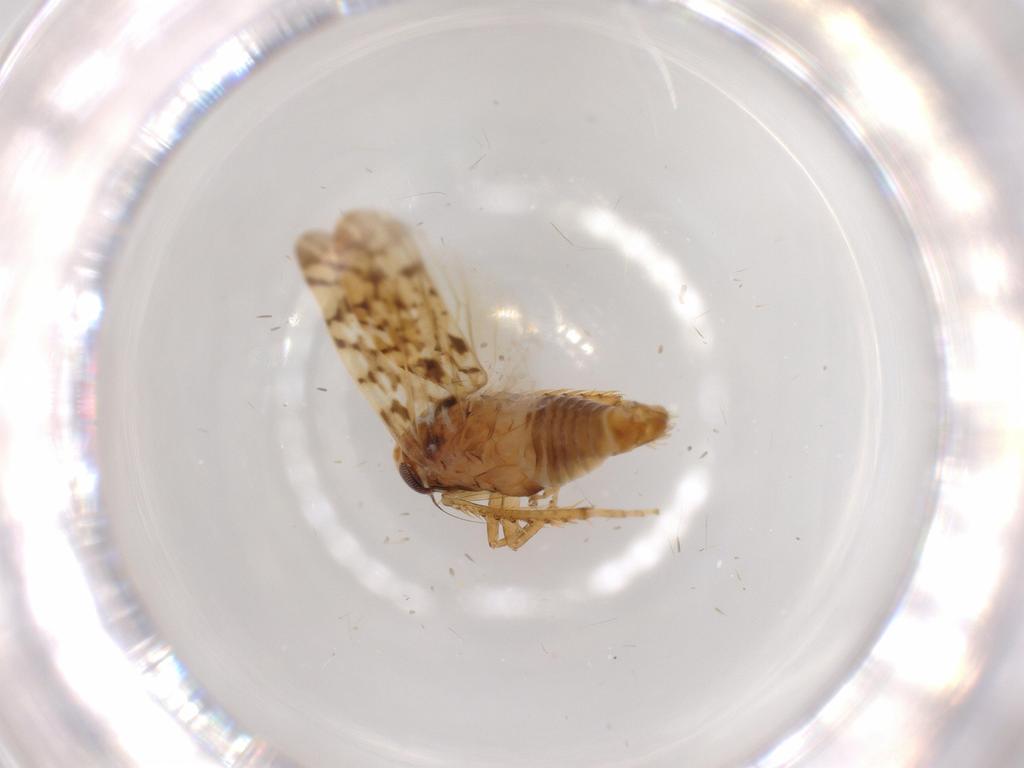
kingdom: Animalia
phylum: Arthropoda
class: Insecta
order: Hemiptera
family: Cicadellidae
